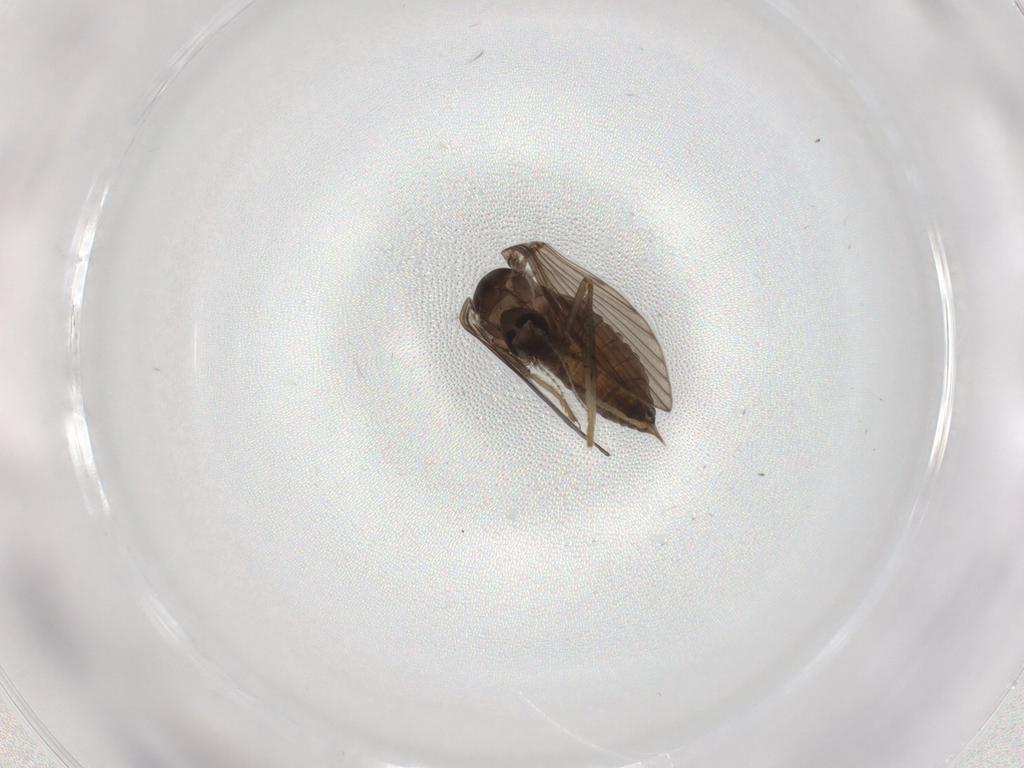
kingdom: Animalia
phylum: Arthropoda
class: Insecta
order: Diptera
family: Psychodidae
